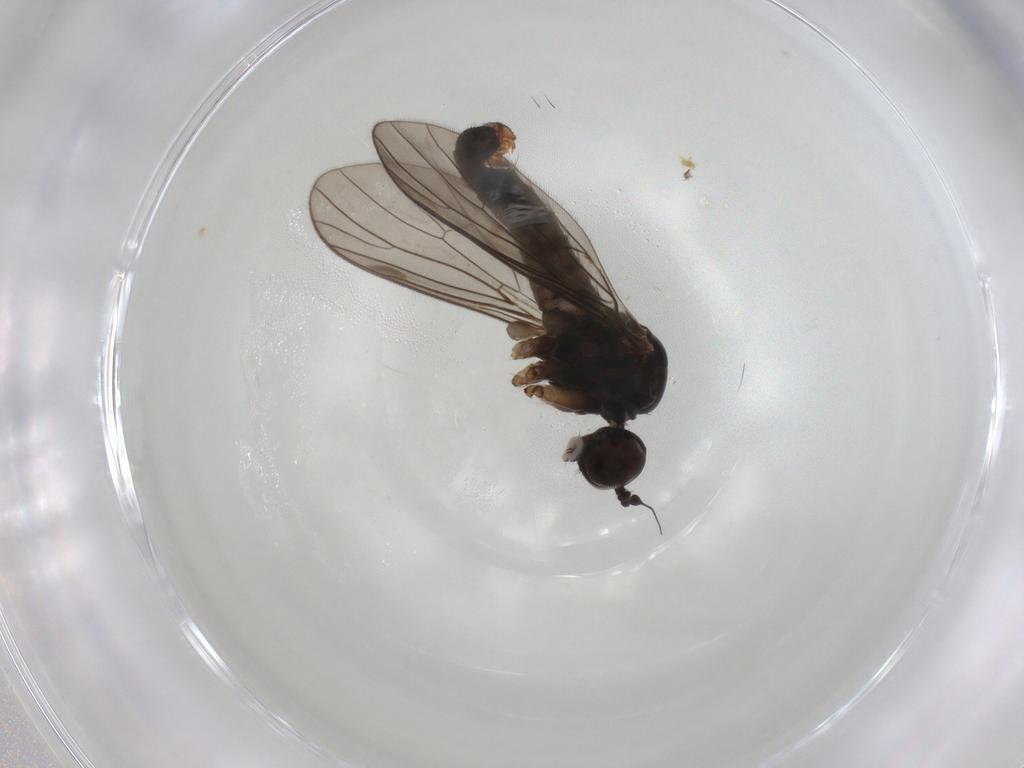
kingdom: Animalia
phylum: Arthropoda
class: Insecta
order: Diptera
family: Hybotidae
